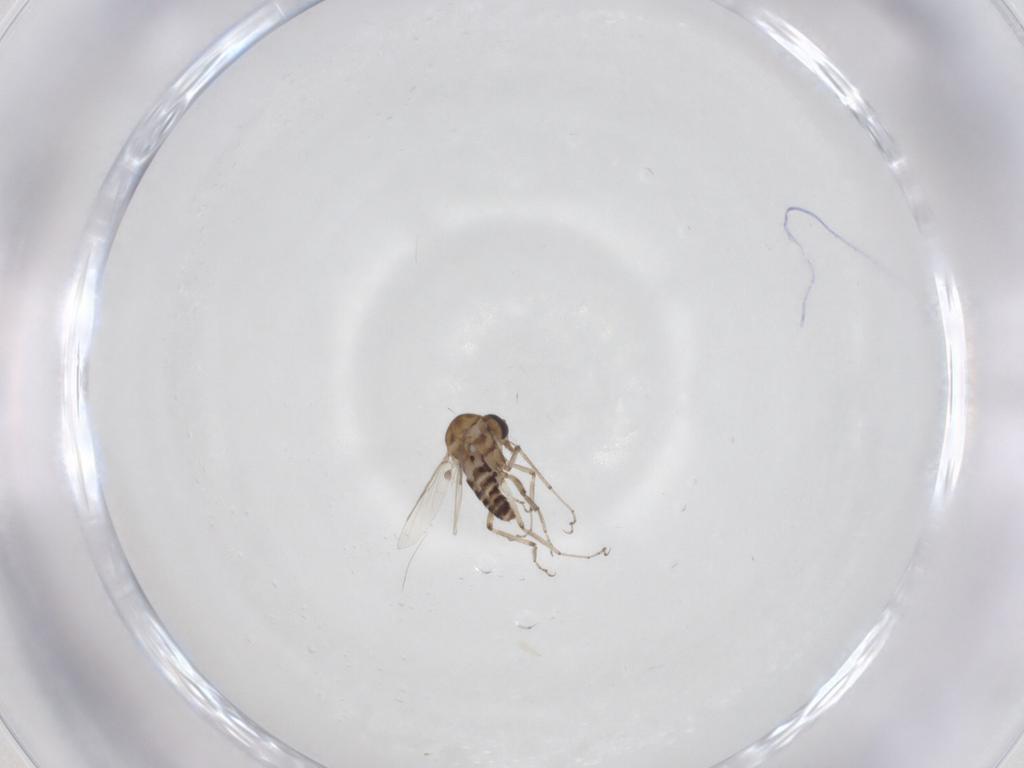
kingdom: Animalia
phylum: Arthropoda
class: Insecta
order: Diptera
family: Ceratopogonidae
